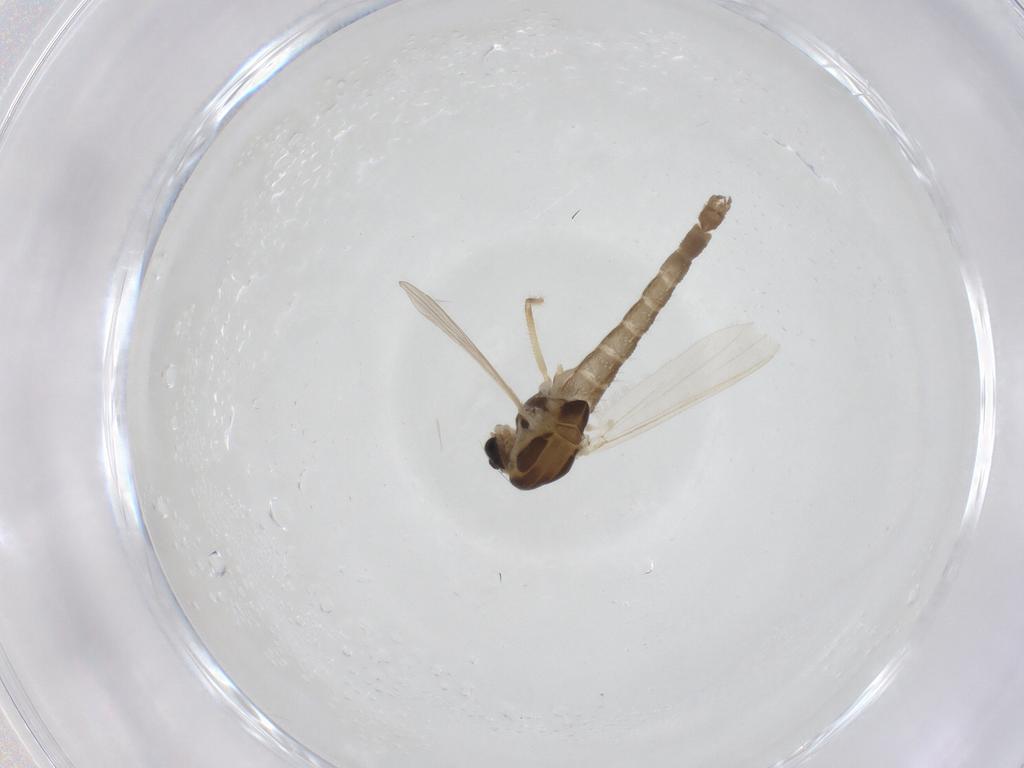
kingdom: Animalia
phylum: Arthropoda
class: Insecta
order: Diptera
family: Chironomidae
